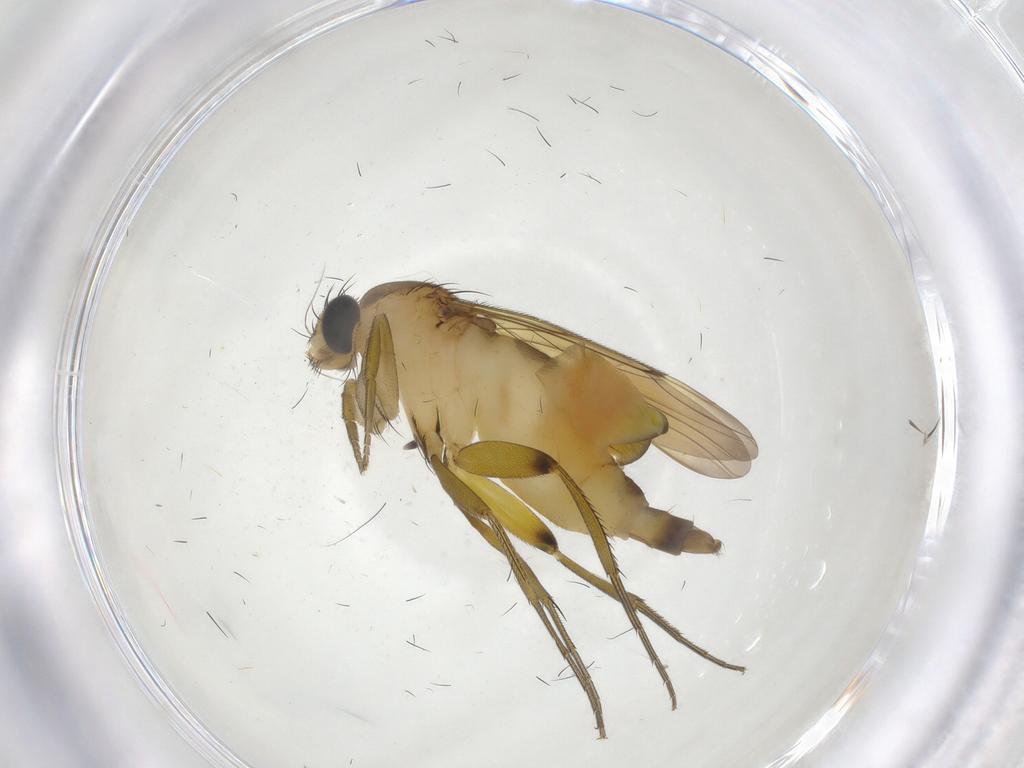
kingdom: Animalia
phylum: Arthropoda
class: Insecta
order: Diptera
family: Phoridae
